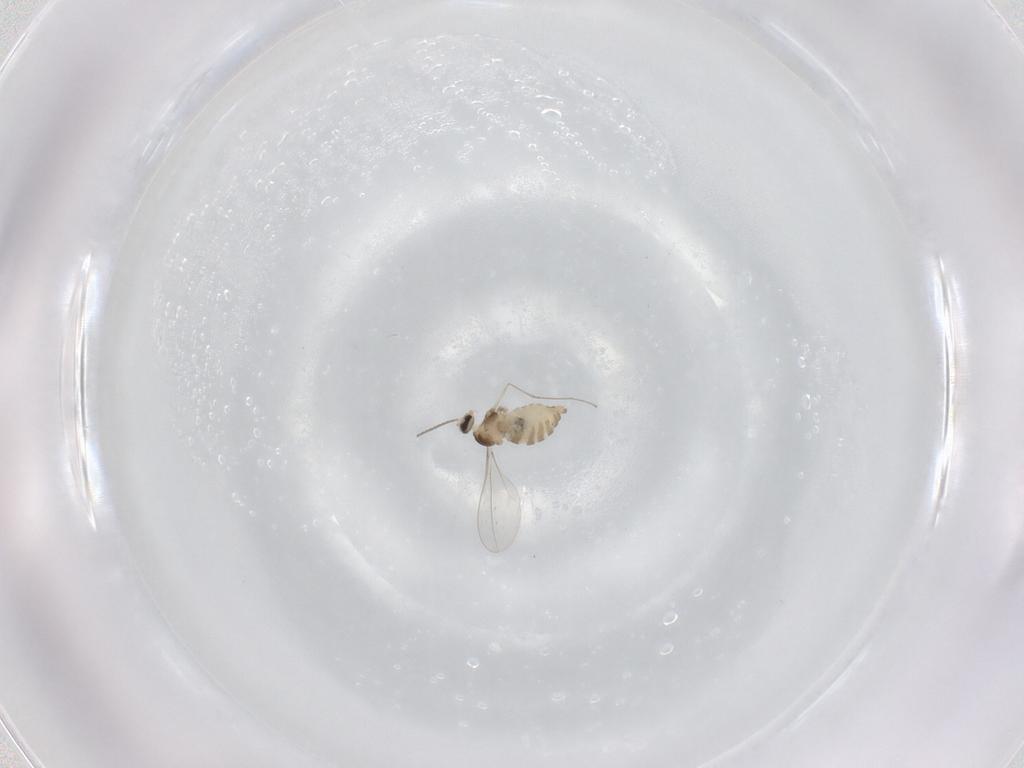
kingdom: Animalia
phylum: Arthropoda
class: Insecta
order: Diptera
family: Cecidomyiidae
